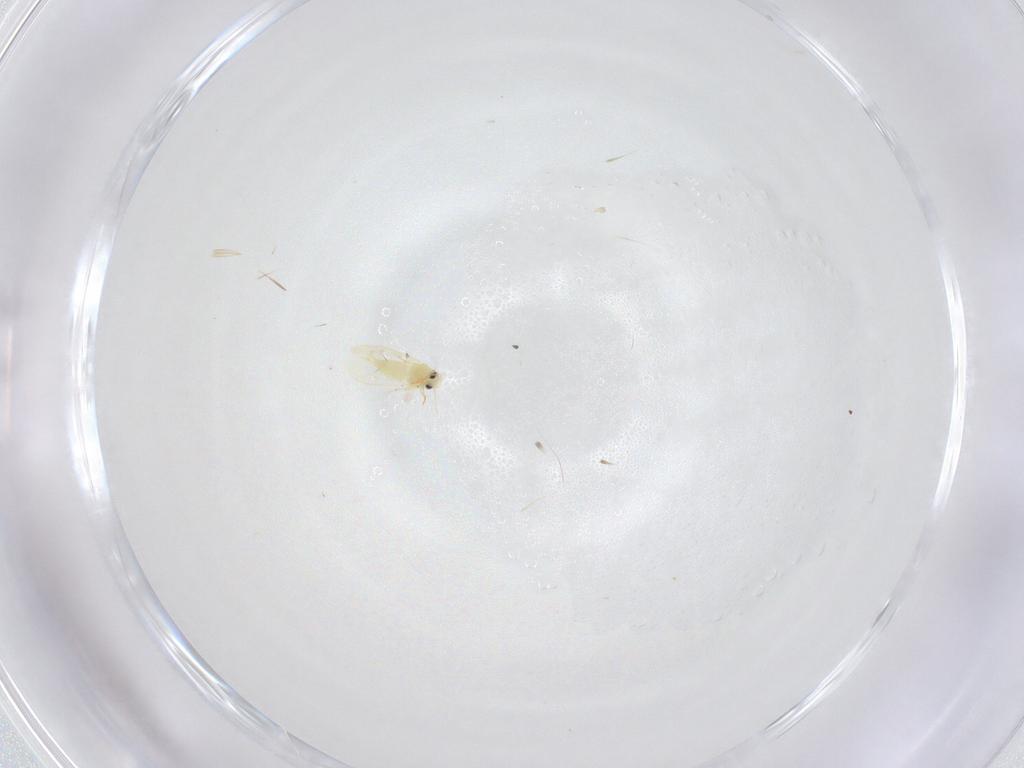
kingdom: Animalia
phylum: Arthropoda
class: Insecta
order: Hemiptera
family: Aleyrodidae
